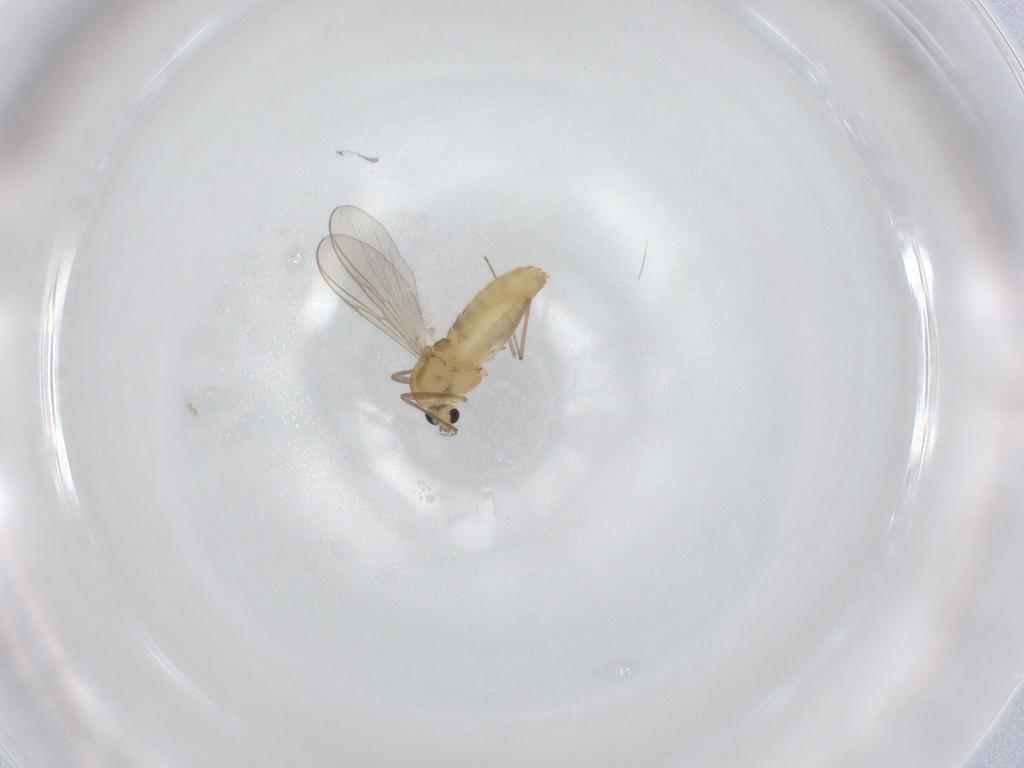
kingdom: Animalia
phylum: Arthropoda
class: Insecta
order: Diptera
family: Chironomidae
